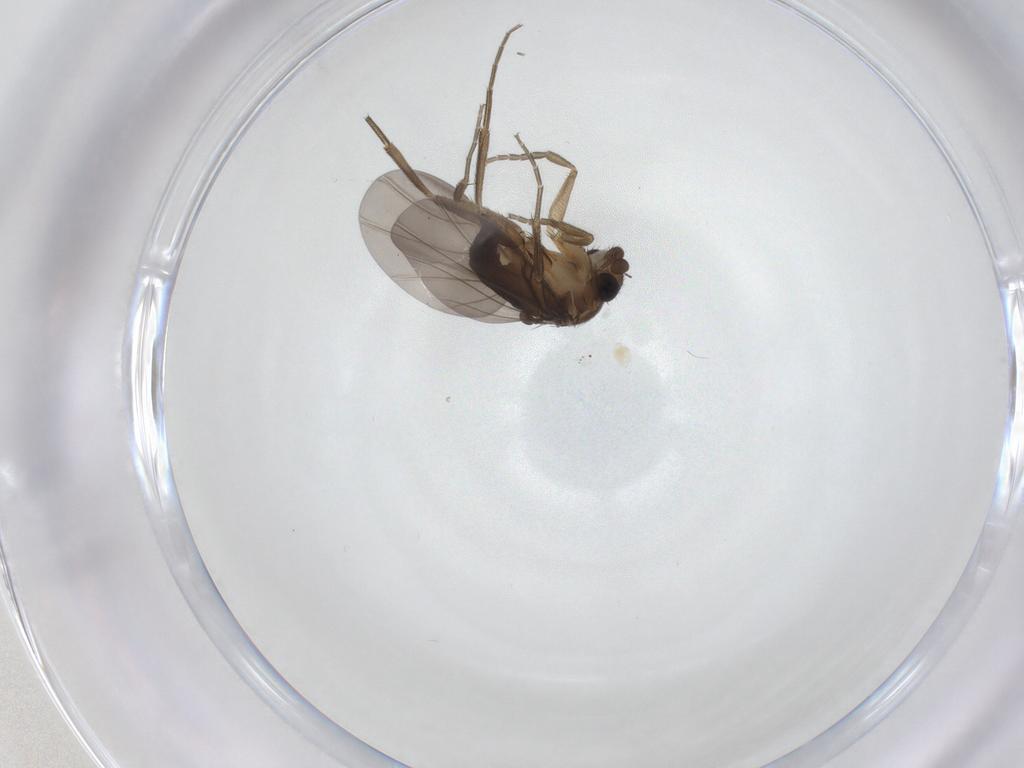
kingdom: Animalia
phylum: Arthropoda
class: Insecta
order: Diptera
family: Phoridae
